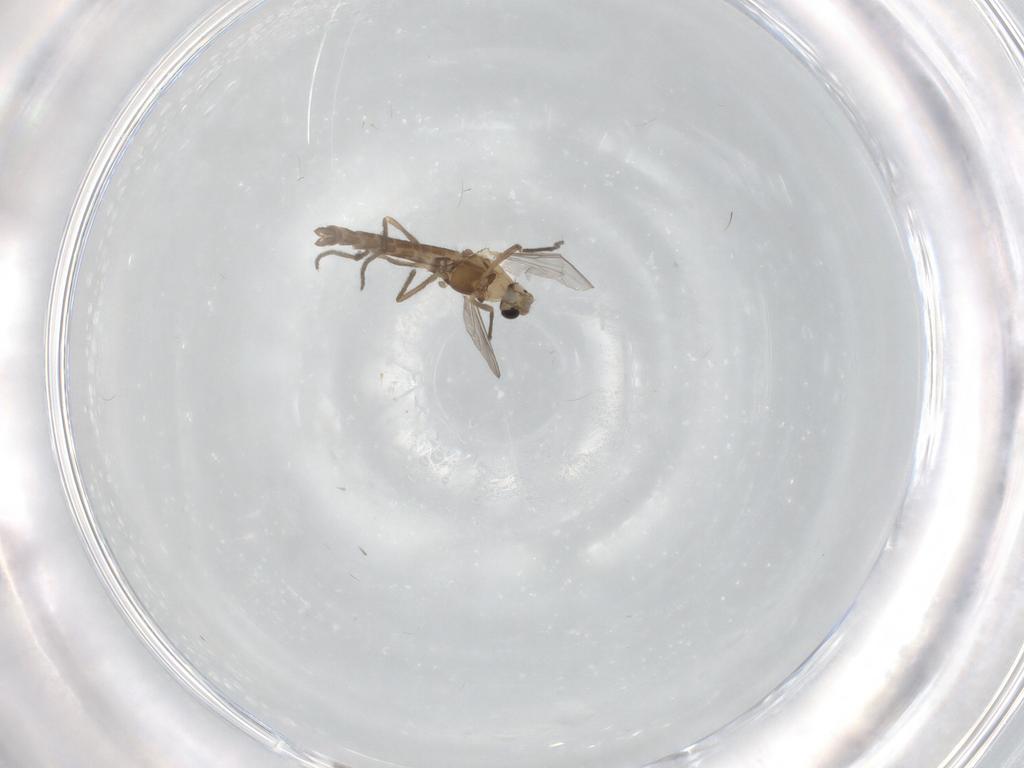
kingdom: Animalia
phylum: Arthropoda
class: Insecta
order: Diptera
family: Chironomidae
